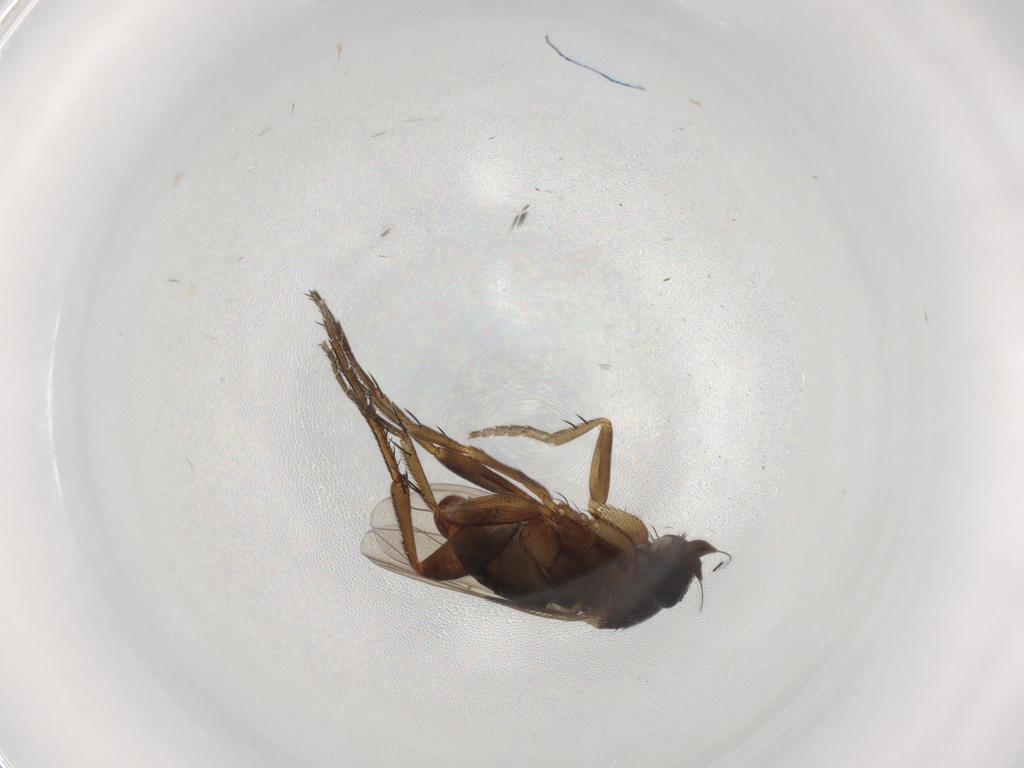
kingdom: Animalia
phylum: Arthropoda
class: Insecta
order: Diptera
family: Phoridae
